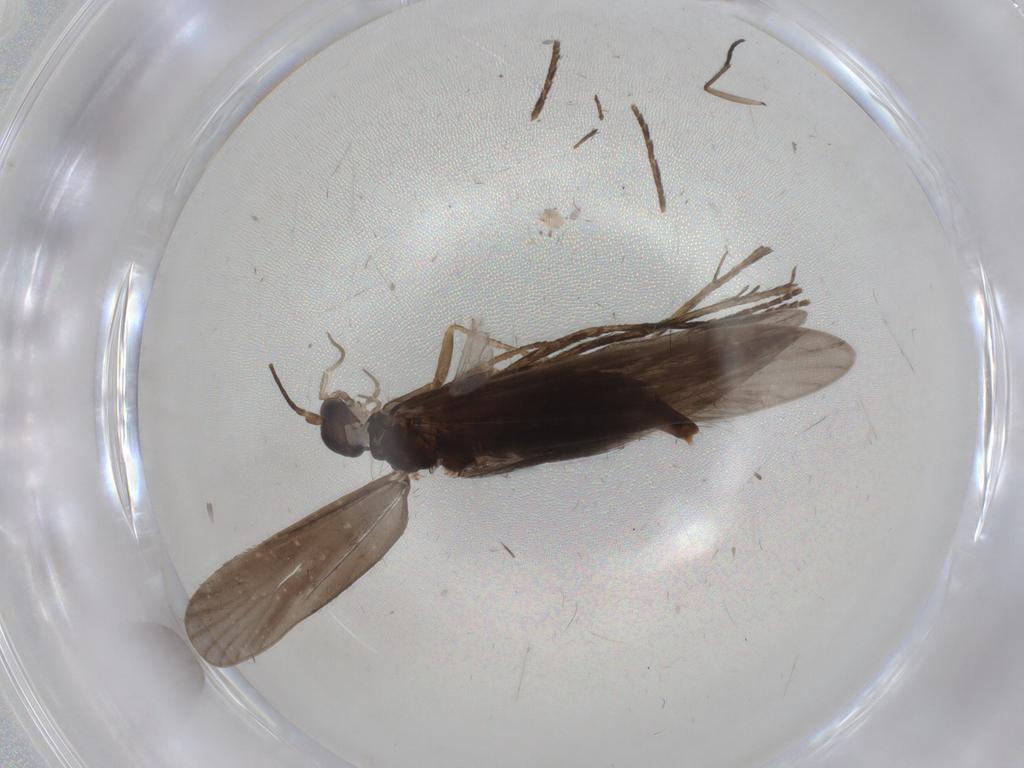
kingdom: Animalia
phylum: Arthropoda
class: Insecta
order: Trichoptera
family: Xiphocentronidae
